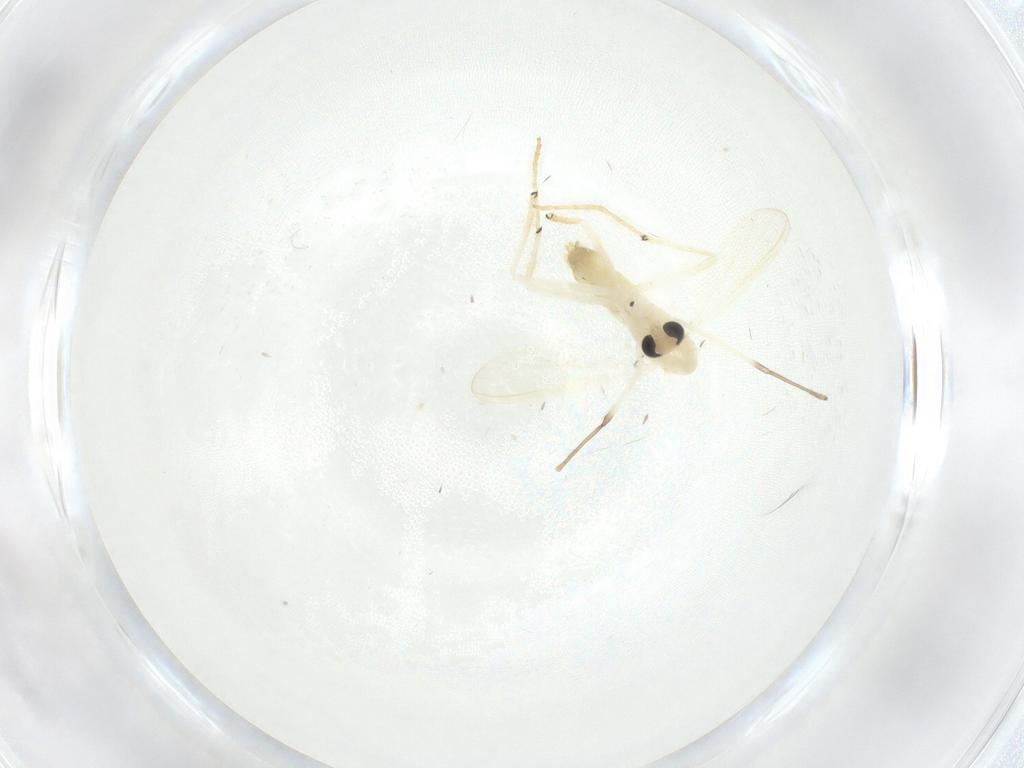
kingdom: Animalia
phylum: Arthropoda
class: Insecta
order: Diptera
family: Chironomidae
